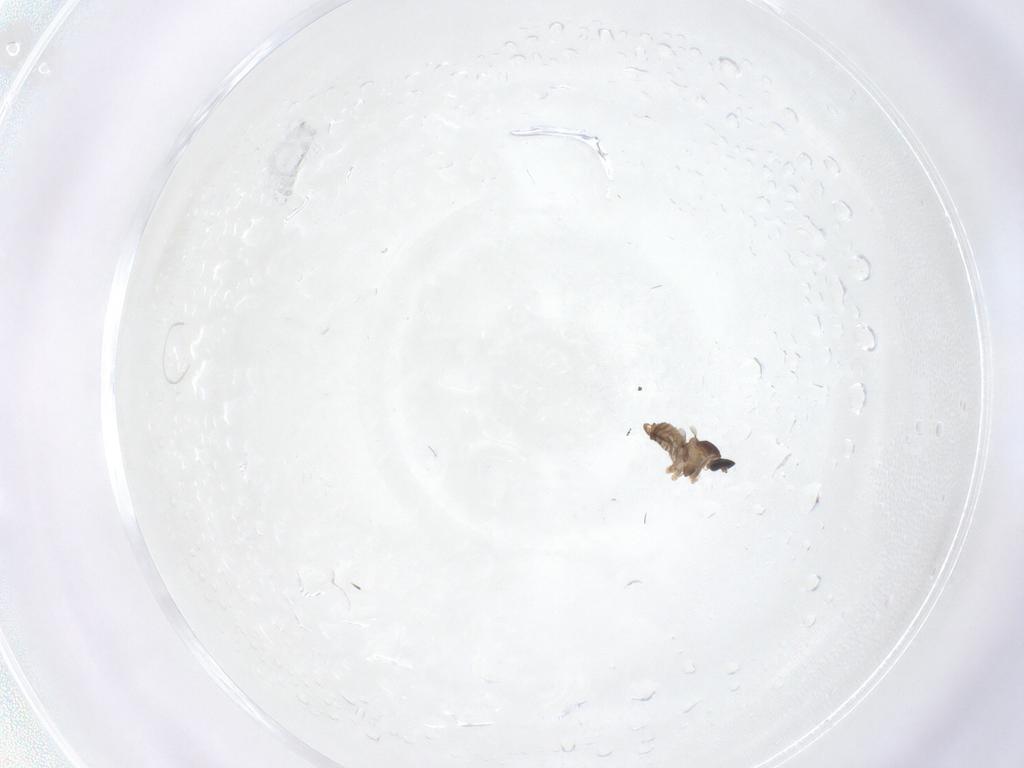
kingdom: Animalia
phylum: Arthropoda
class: Insecta
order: Diptera
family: Cecidomyiidae
